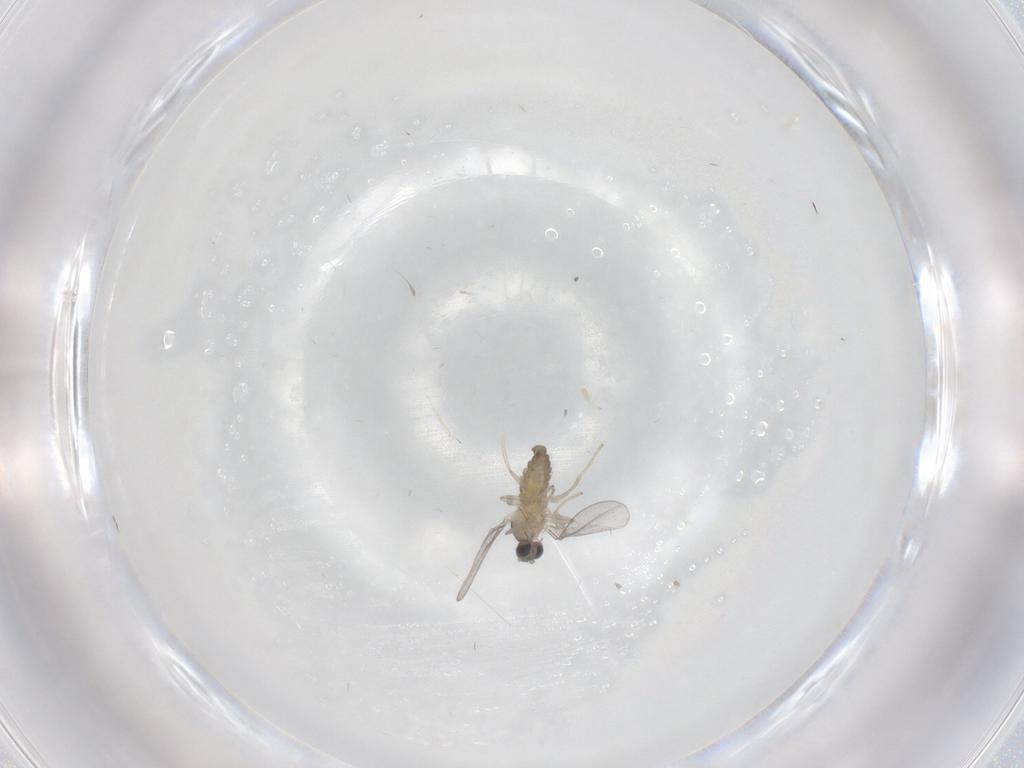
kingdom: Animalia
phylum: Arthropoda
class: Insecta
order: Diptera
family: Cecidomyiidae
